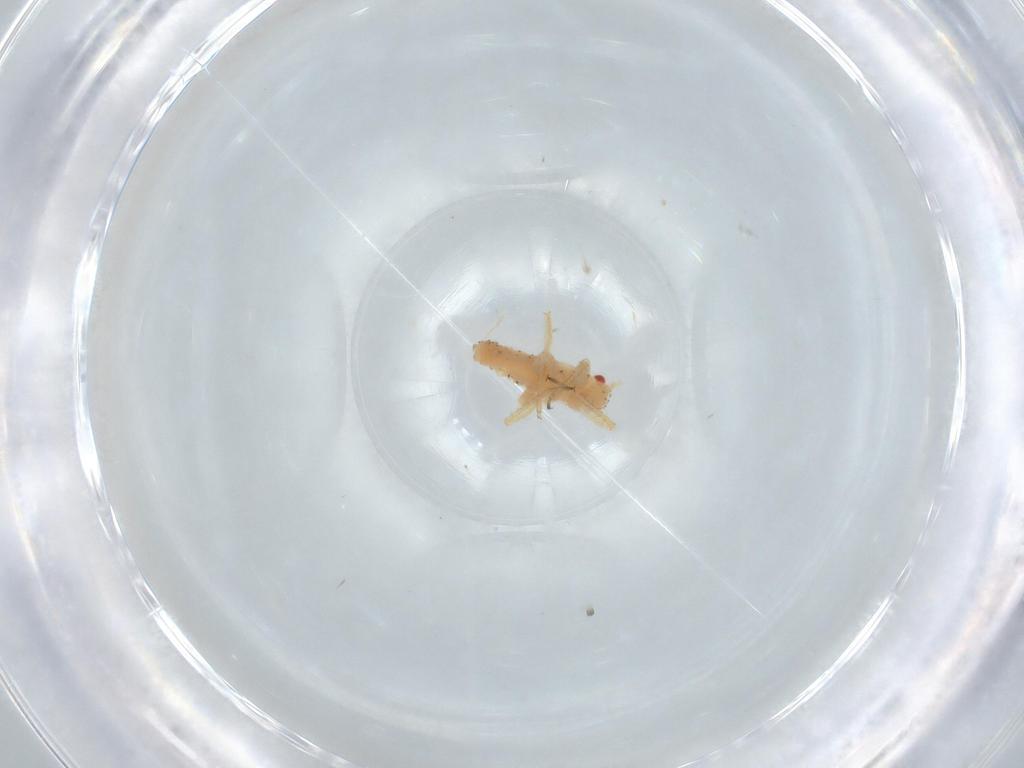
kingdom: Animalia
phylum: Arthropoda
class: Insecta
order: Hemiptera
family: Aphididae
